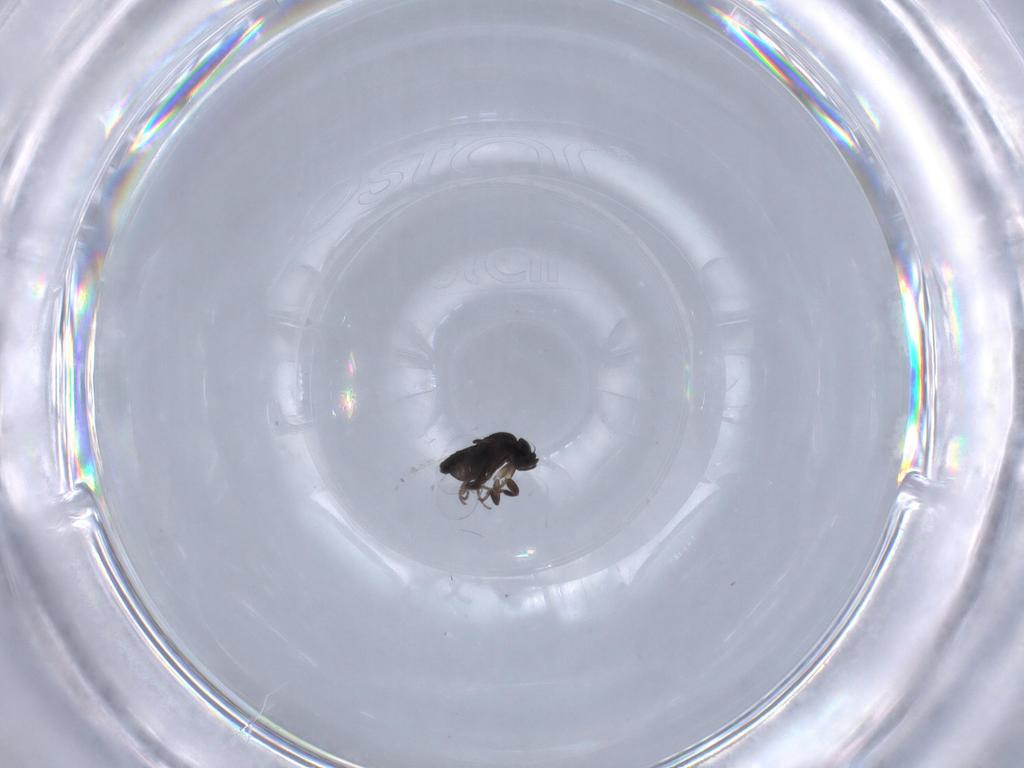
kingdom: Animalia
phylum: Arthropoda
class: Insecta
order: Diptera
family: Phoridae
